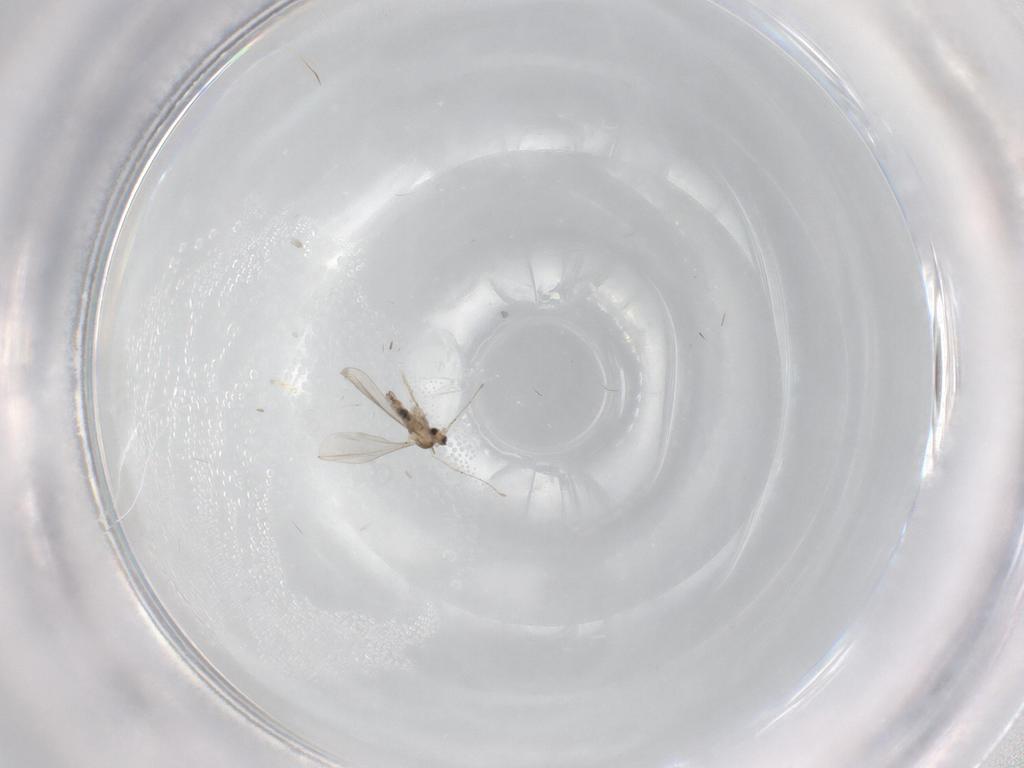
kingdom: Animalia
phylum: Arthropoda
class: Insecta
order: Diptera
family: Cecidomyiidae
